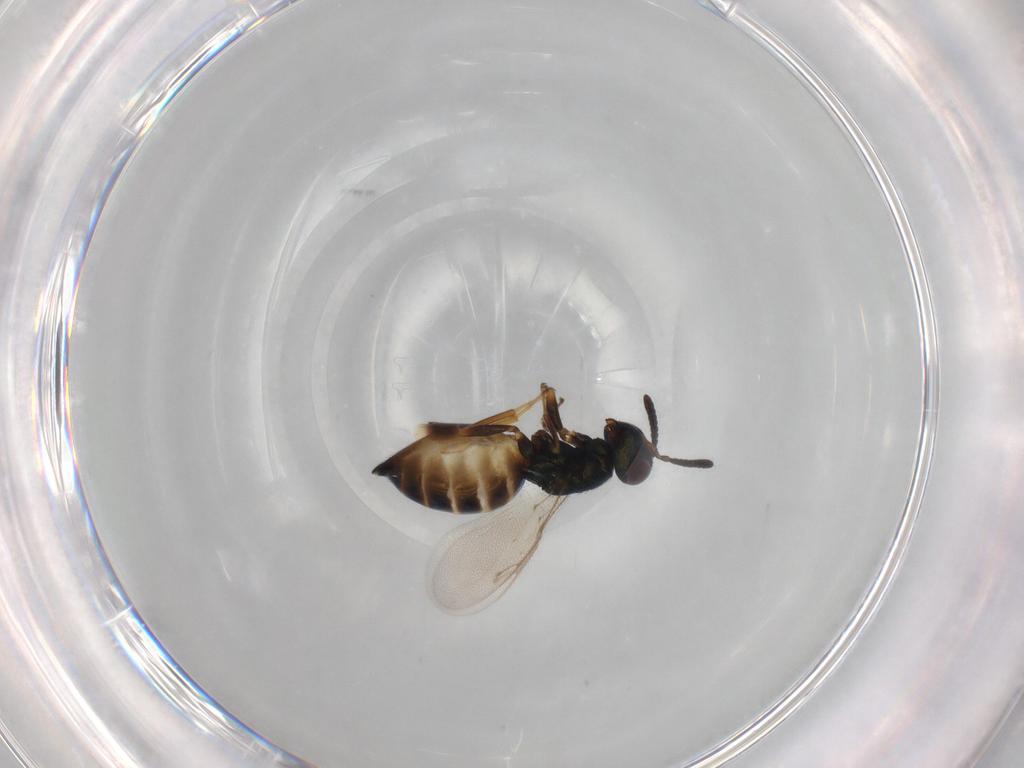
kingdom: Animalia
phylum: Arthropoda
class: Insecta
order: Hymenoptera
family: Pteromalidae
